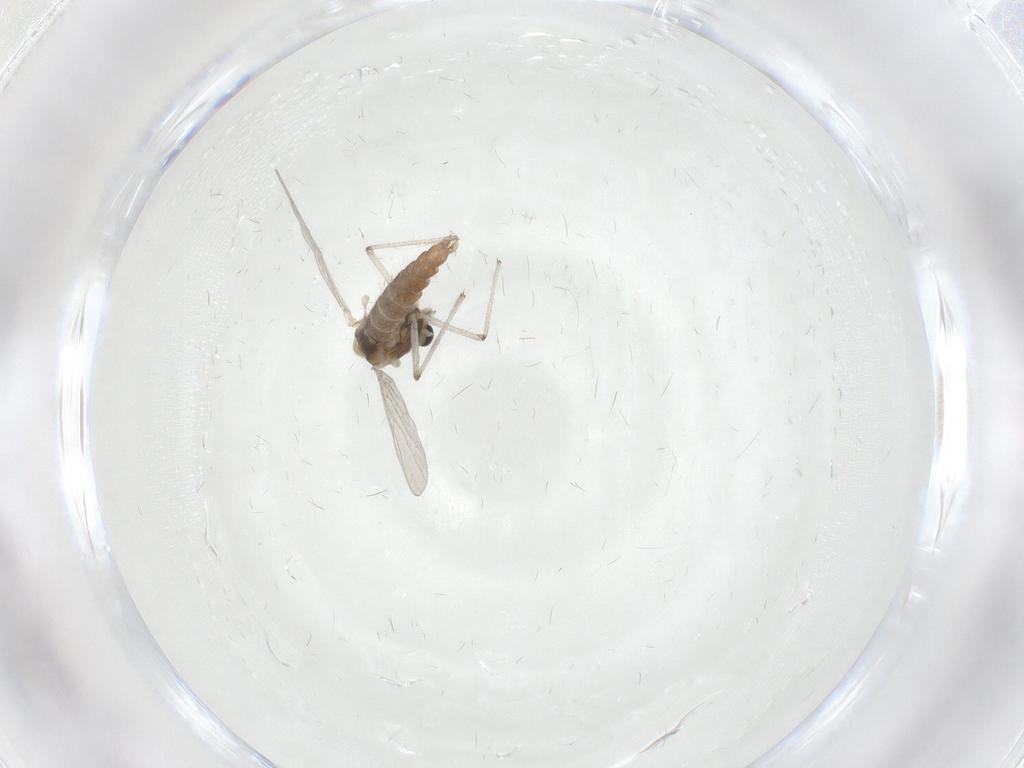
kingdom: Animalia
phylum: Arthropoda
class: Insecta
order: Diptera
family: Chironomidae
